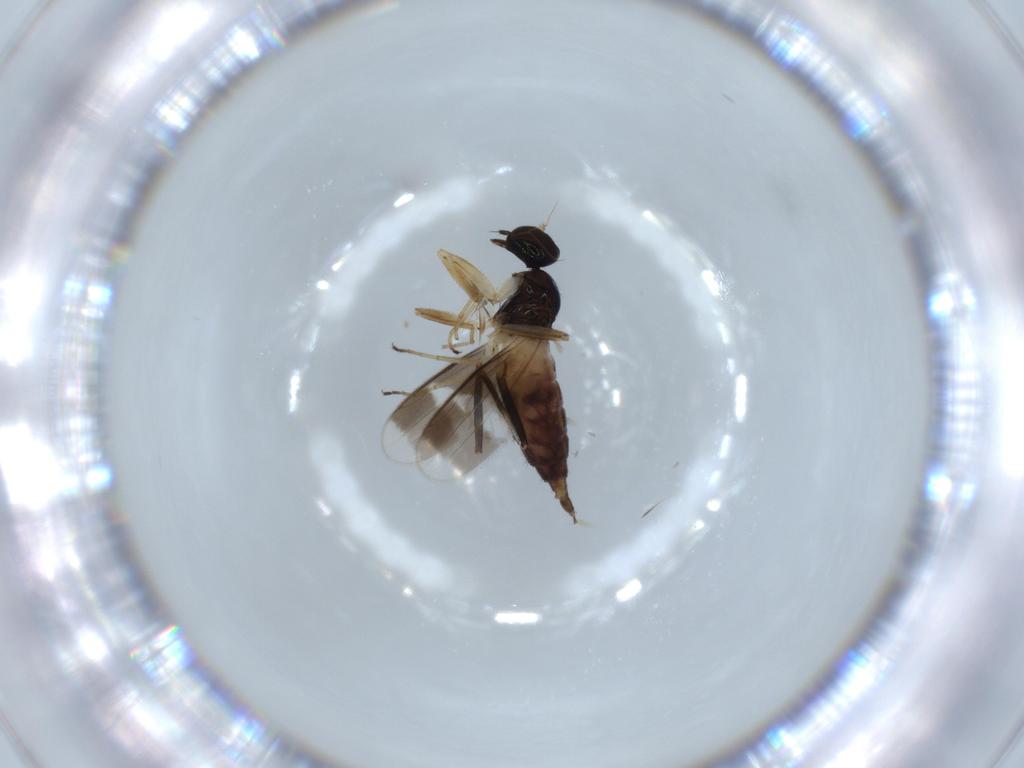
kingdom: Animalia
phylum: Arthropoda
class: Insecta
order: Diptera
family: Hybotidae
